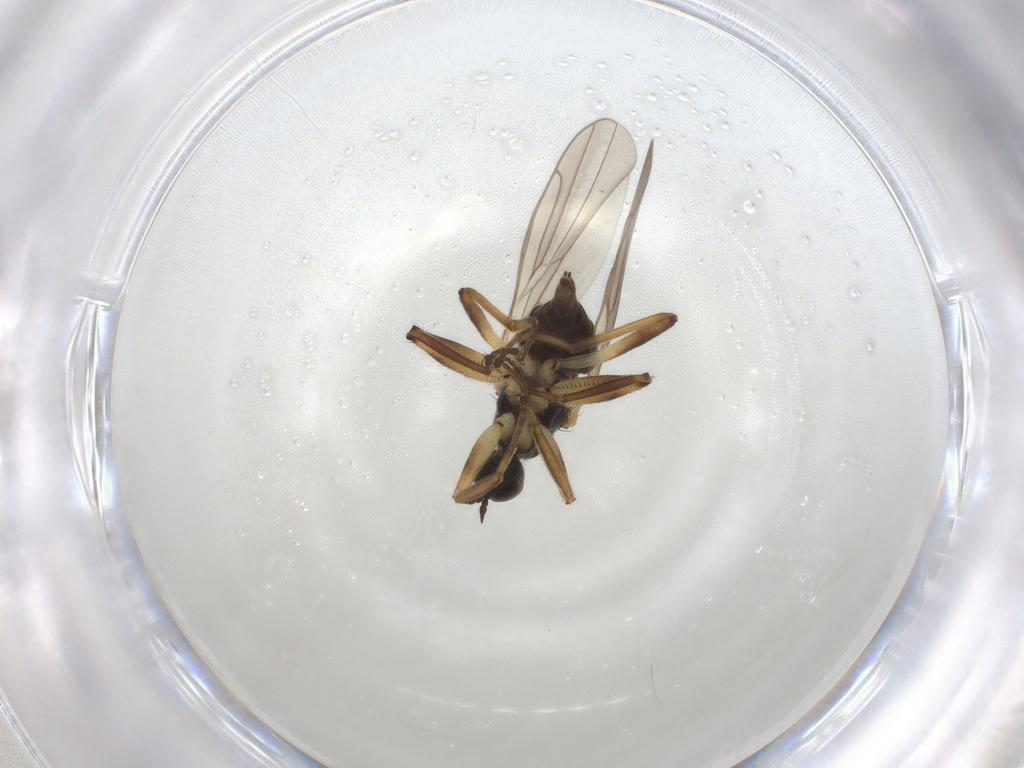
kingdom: Animalia
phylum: Arthropoda
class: Insecta
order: Diptera
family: Hybotidae
